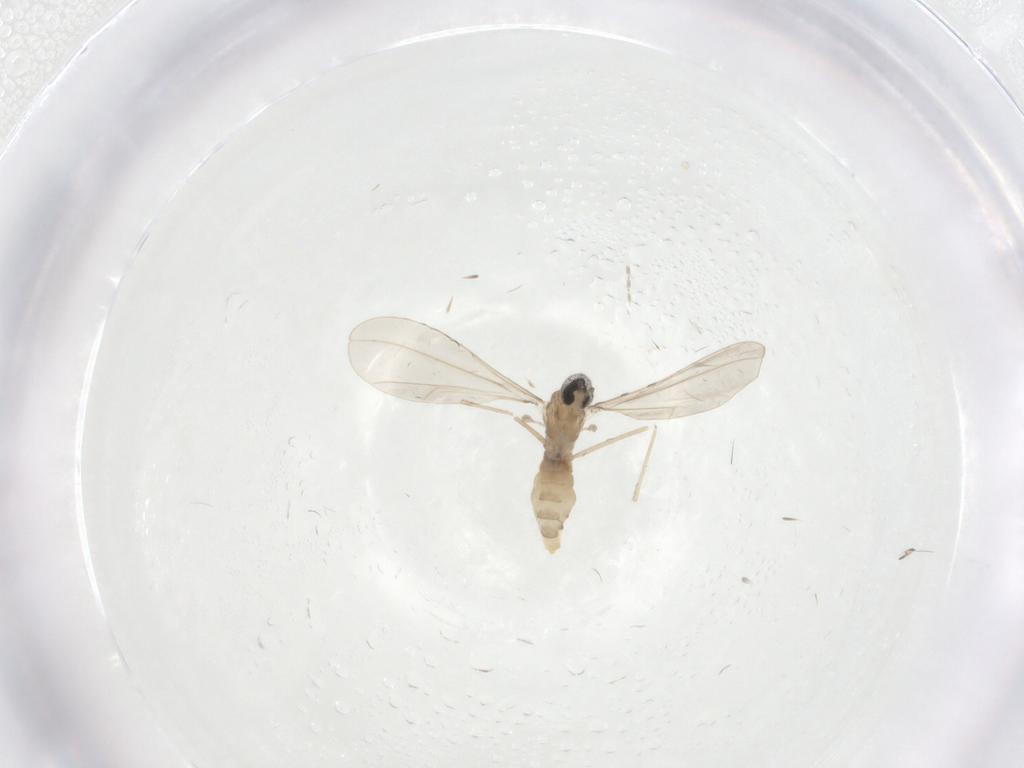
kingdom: Animalia
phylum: Arthropoda
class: Insecta
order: Diptera
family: Cecidomyiidae
